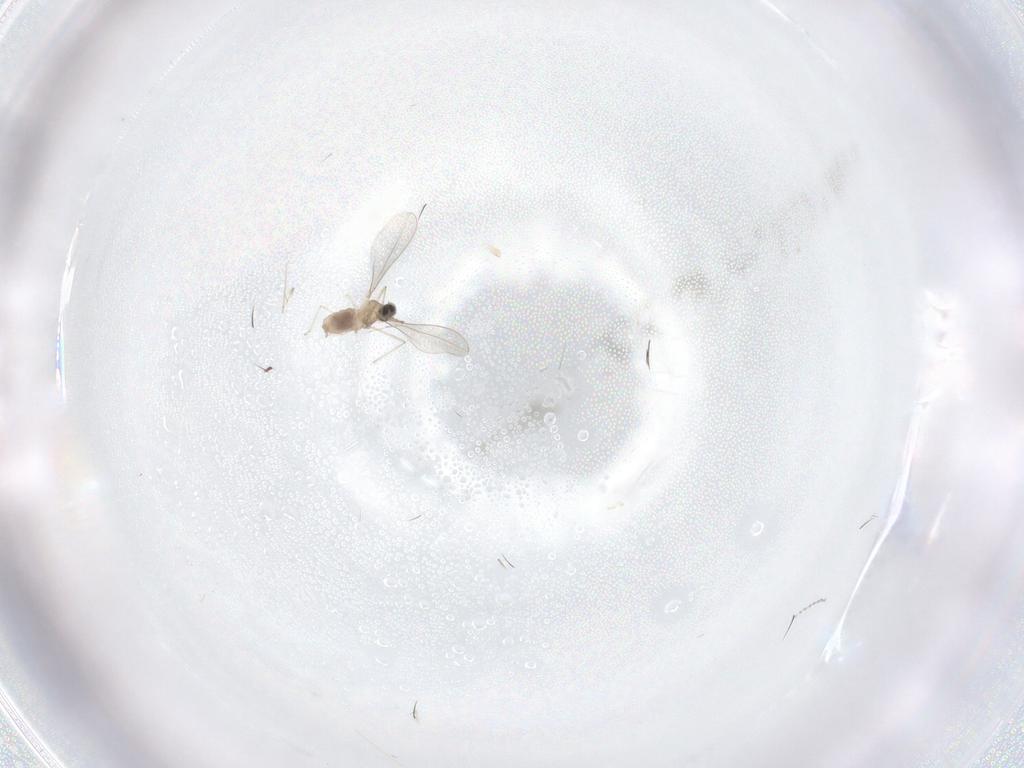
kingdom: Animalia
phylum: Arthropoda
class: Insecta
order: Diptera
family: Cecidomyiidae
